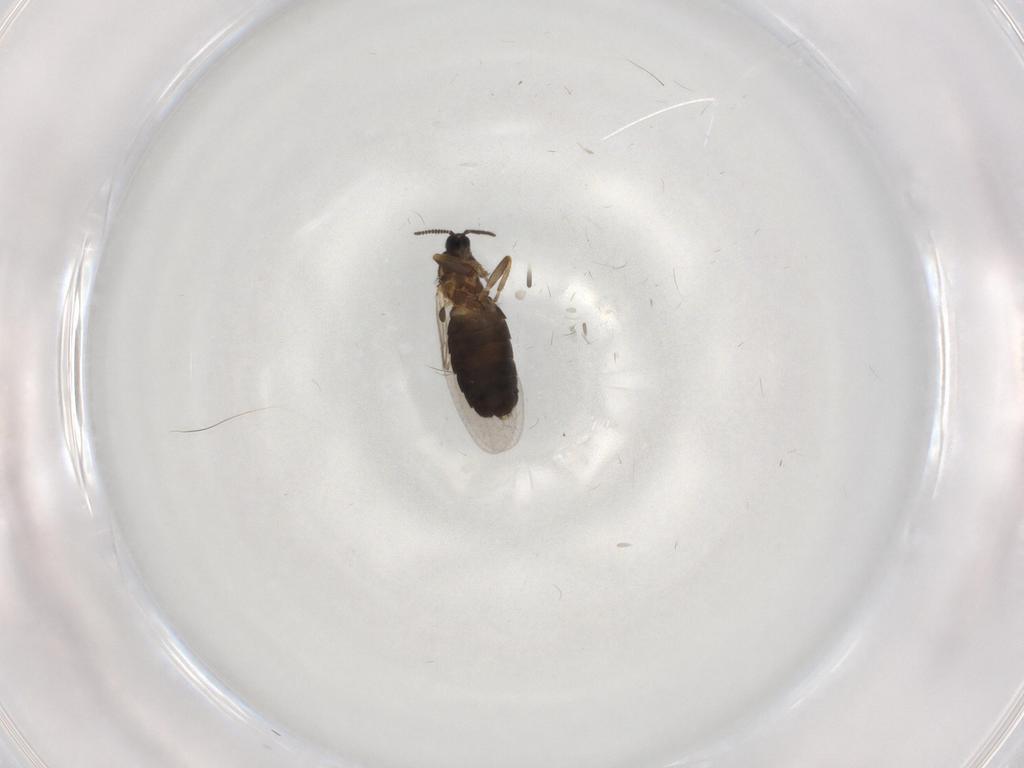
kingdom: Animalia
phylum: Arthropoda
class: Insecta
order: Diptera
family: Scatopsidae
